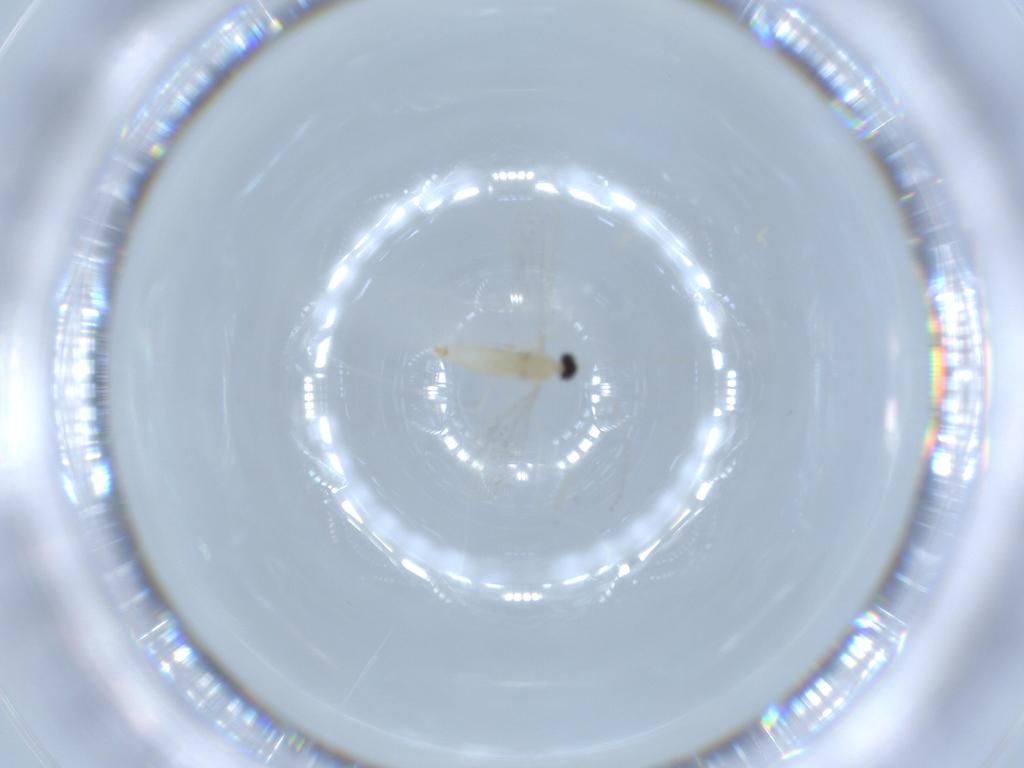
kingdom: Animalia
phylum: Arthropoda
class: Insecta
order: Diptera
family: Cecidomyiidae
